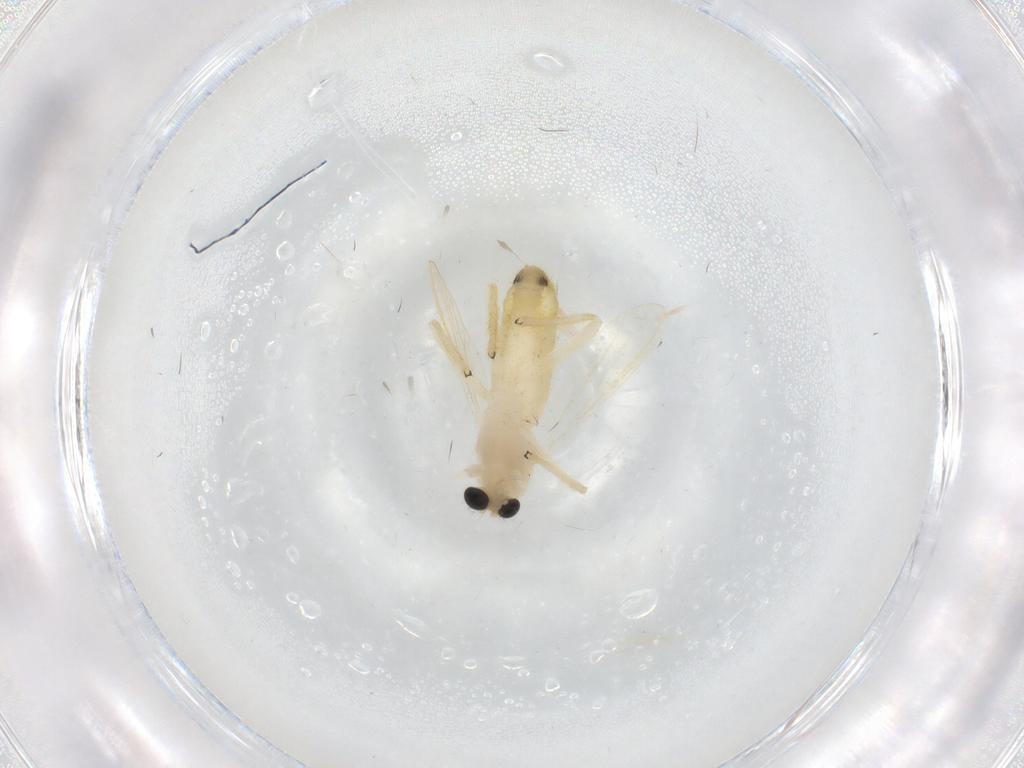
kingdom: Animalia
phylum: Arthropoda
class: Insecta
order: Diptera
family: Chironomidae
